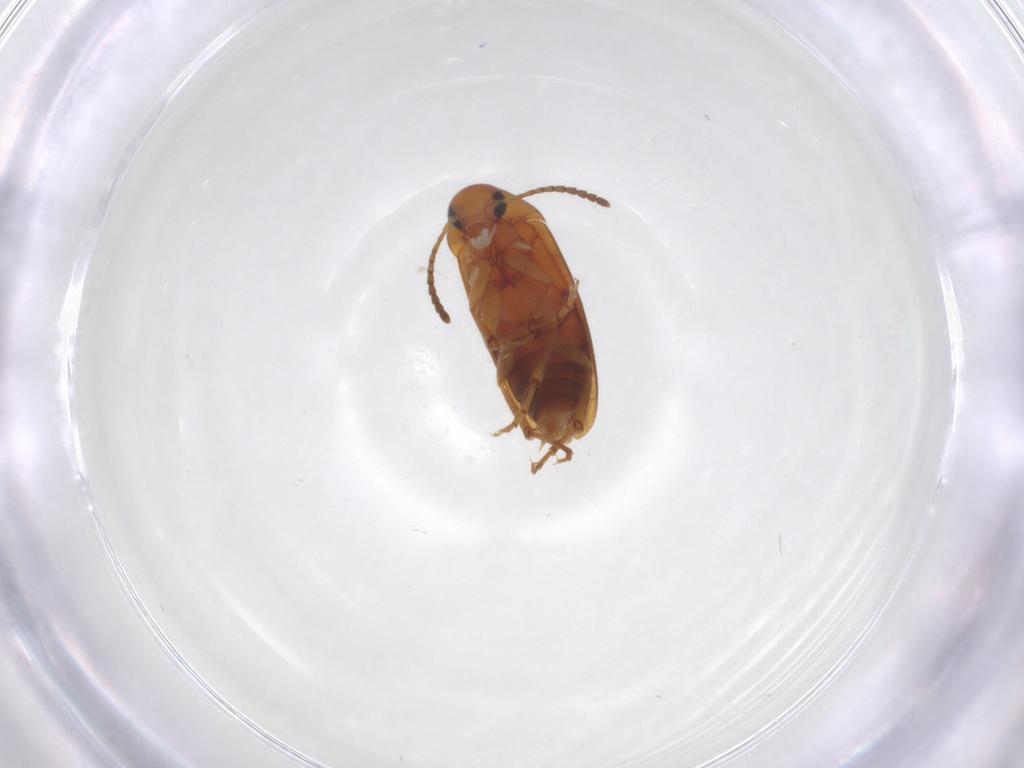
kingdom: Animalia
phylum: Arthropoda
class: Insecta
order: Coleoptera
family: Scraptiidae
